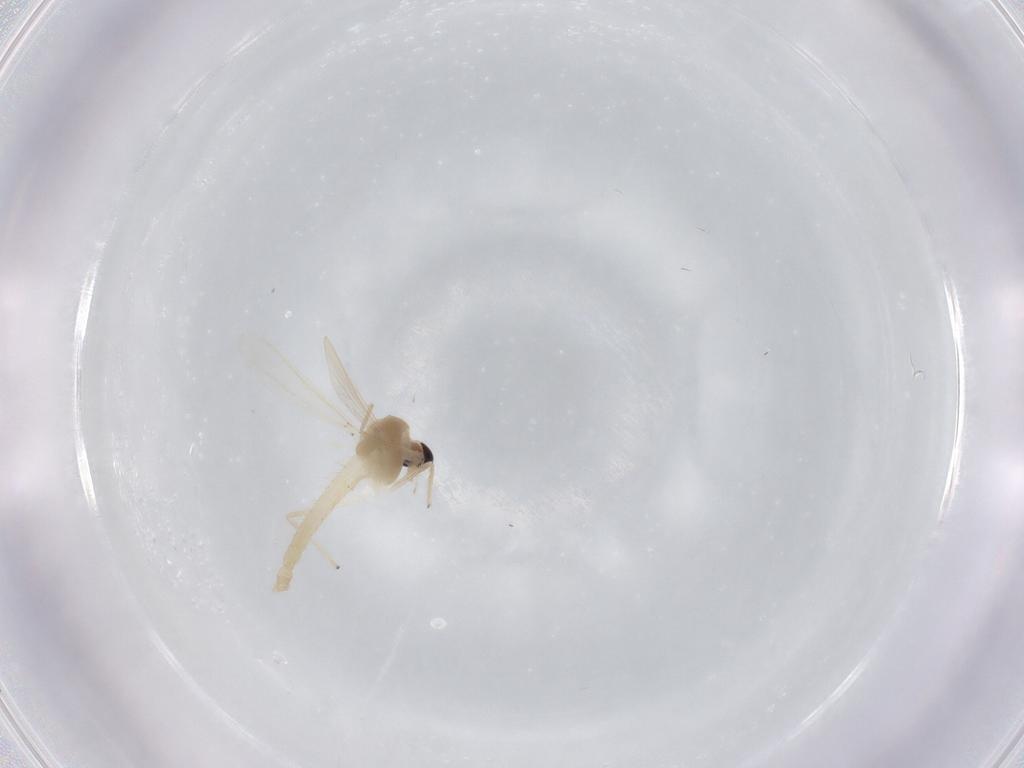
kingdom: Animalia
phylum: Arthropoda
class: Insecta
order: Diptera
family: Chironomidae
